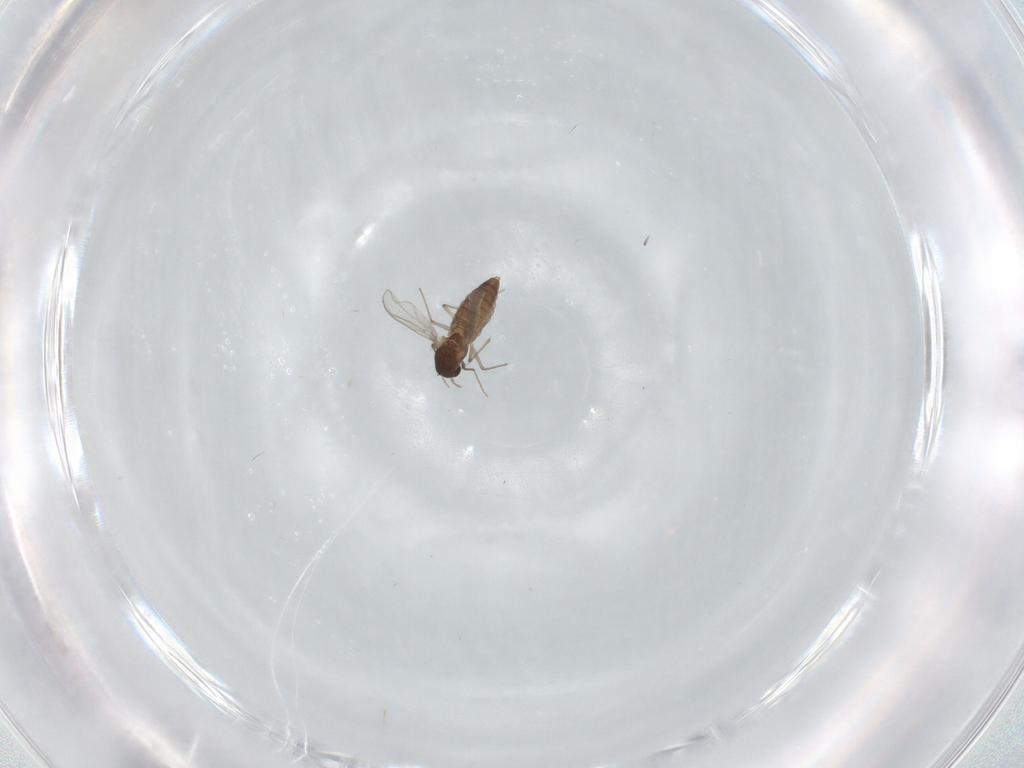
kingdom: Animalia
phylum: Arthropoda
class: Insecta
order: Diptera
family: Chironomidae
